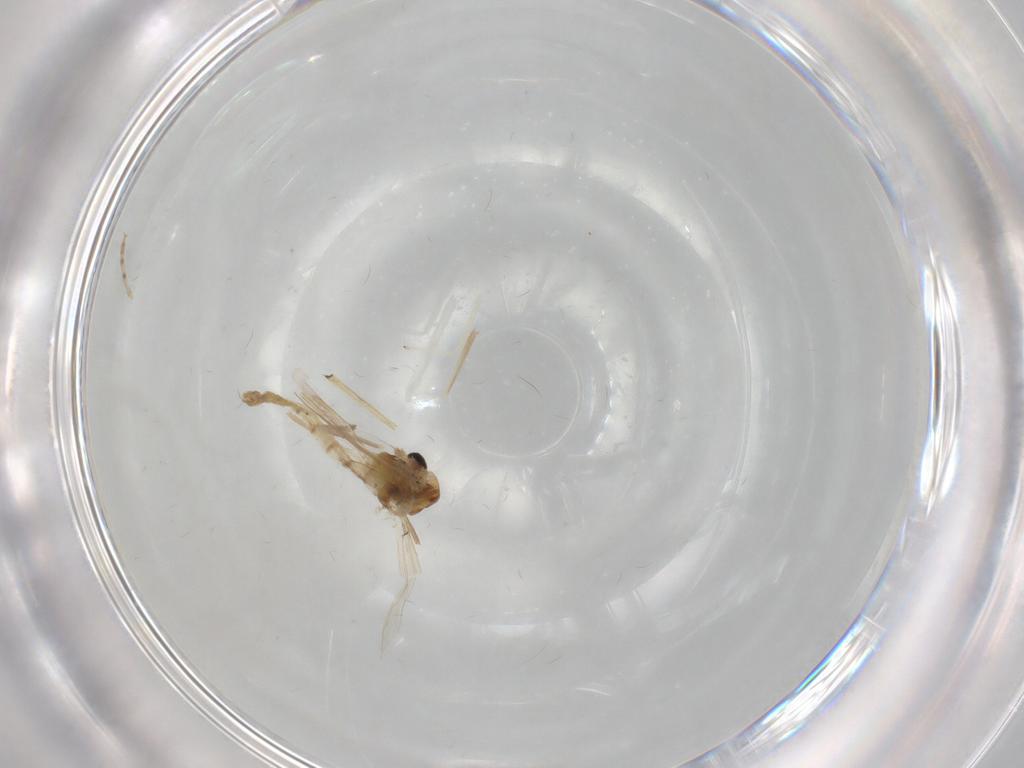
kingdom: Animalia
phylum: Arthropoda
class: Insecta
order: Diptera
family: Chironomidae
